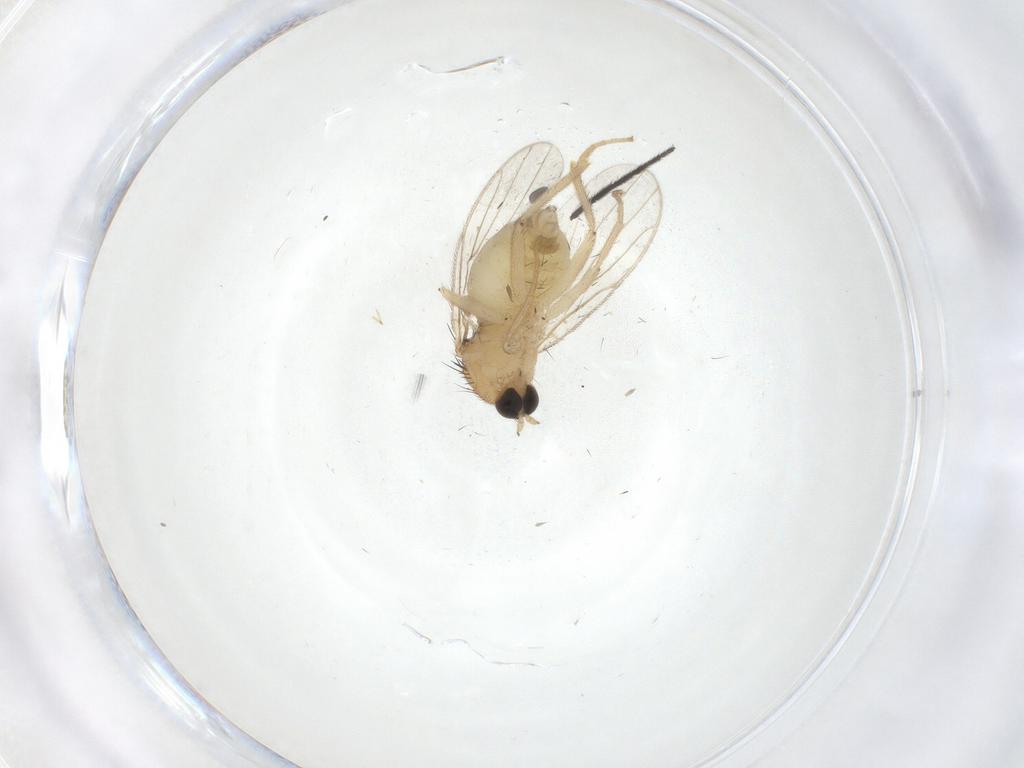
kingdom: Animalia
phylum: Arthropoda
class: Insecta
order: Diptera
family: Hybotidae
